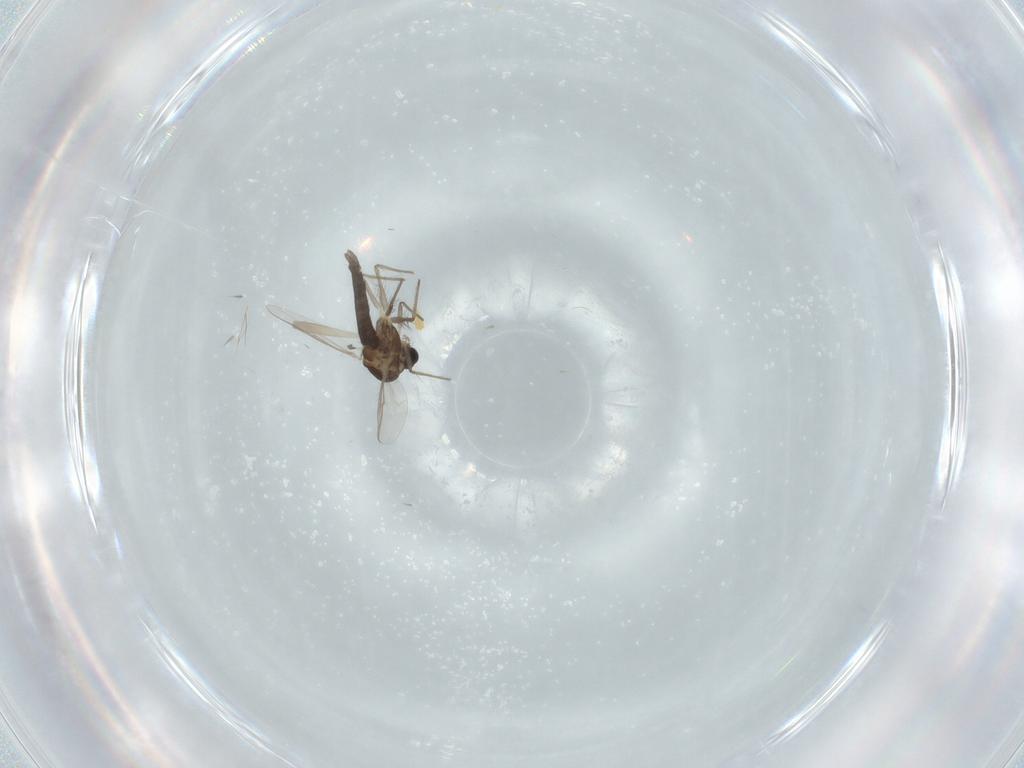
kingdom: Animalia
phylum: Arthropoda
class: Insecta
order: Diptera
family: Chironomidae
